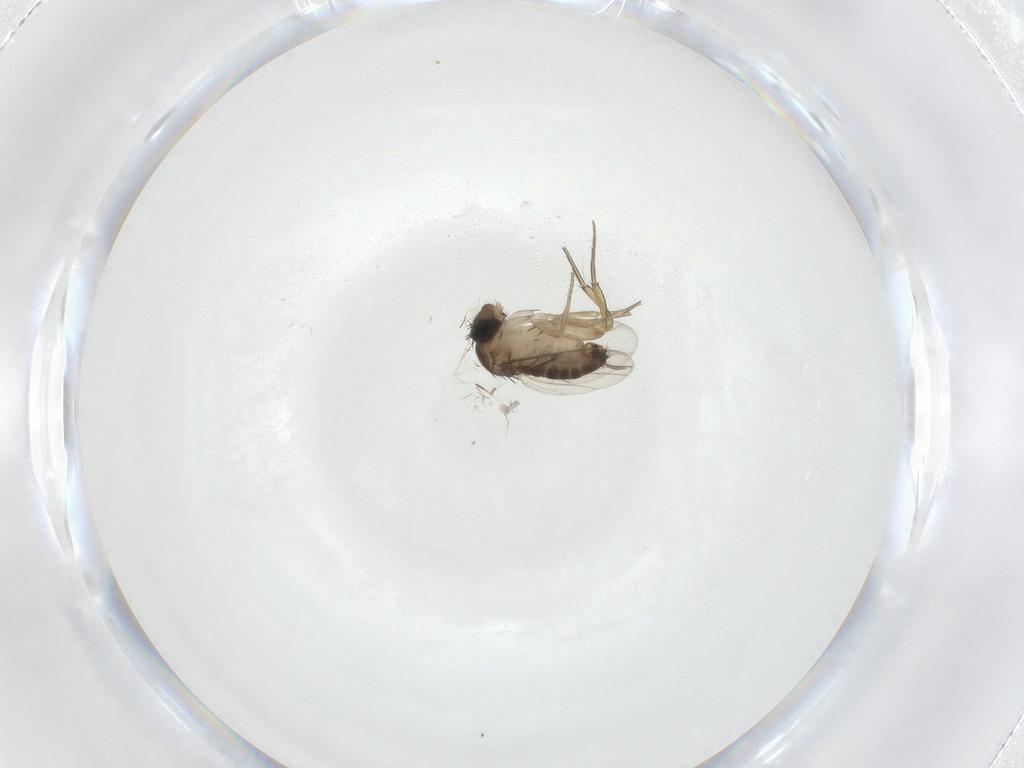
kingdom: Animalia
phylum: Arthropoda
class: Insecta
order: Diptera
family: Phoridae
